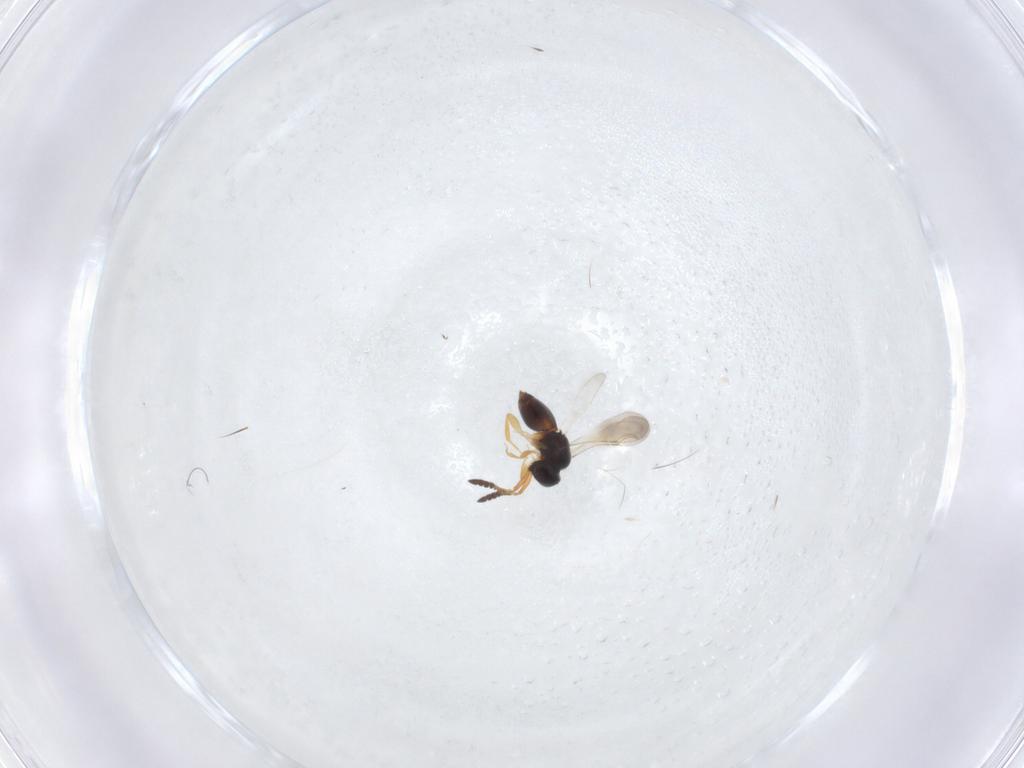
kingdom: Animalia
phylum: Arthropoda
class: Insecta
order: Hymenoptera
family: Ceraphronidae
